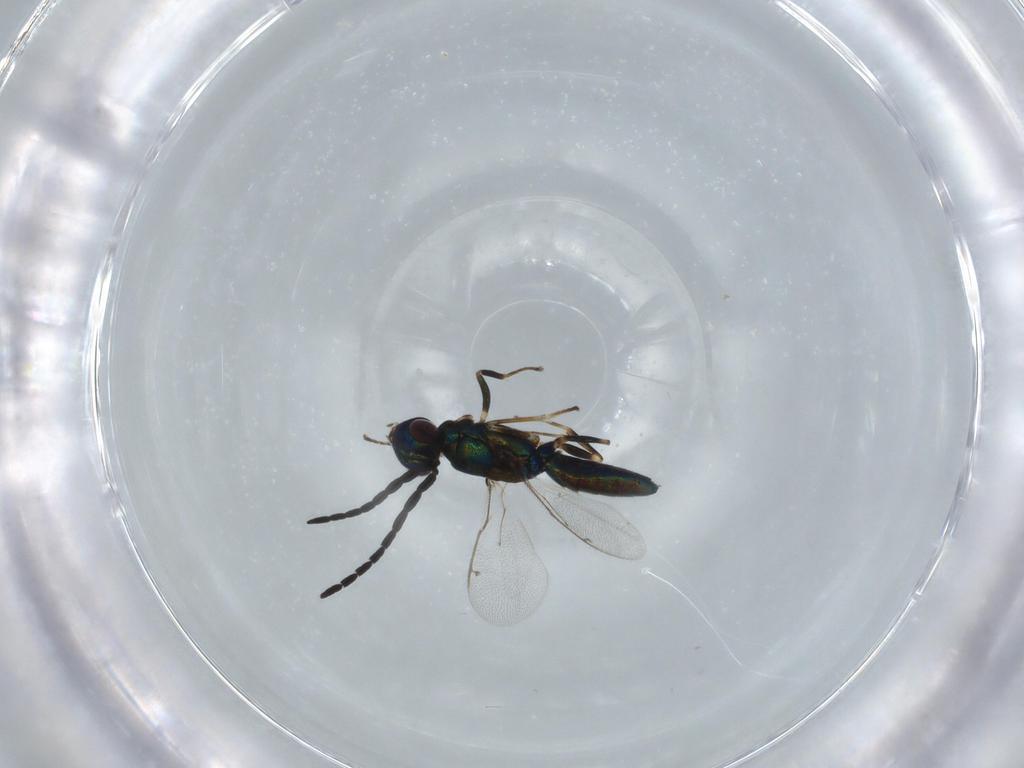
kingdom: Animalia
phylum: Arthropoda
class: Insecta
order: Hymenoptera
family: Eupelmidae
